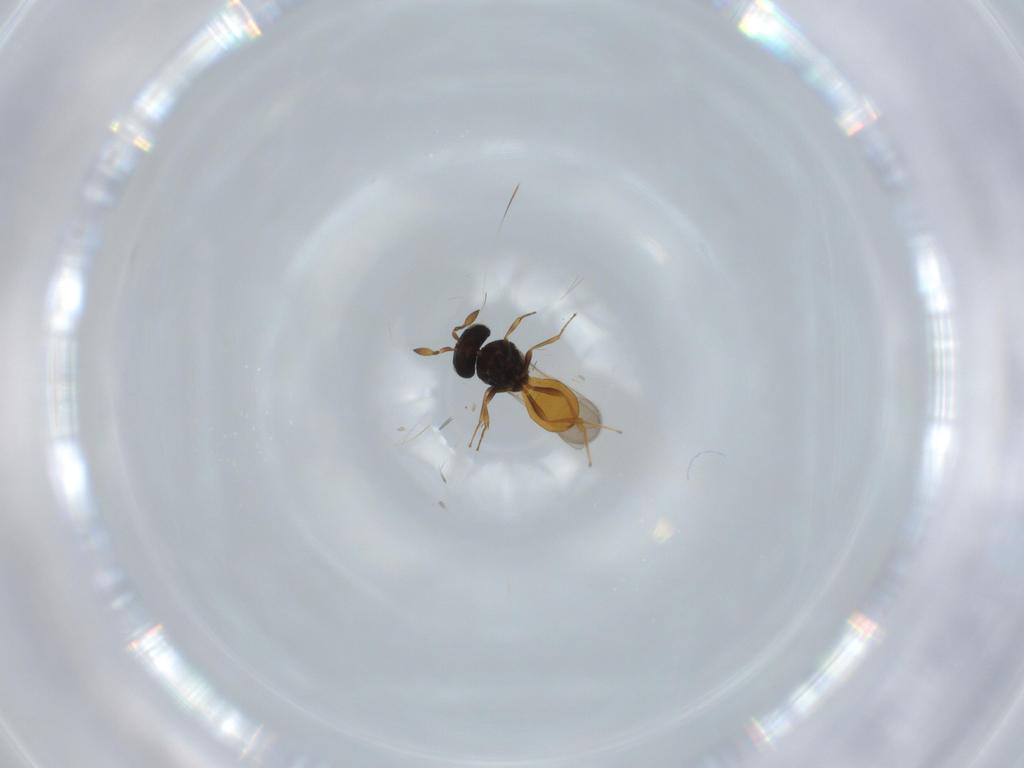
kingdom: Animalia
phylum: Arthropoda
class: Insecta
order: Hymenoptera
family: Scelionidae
